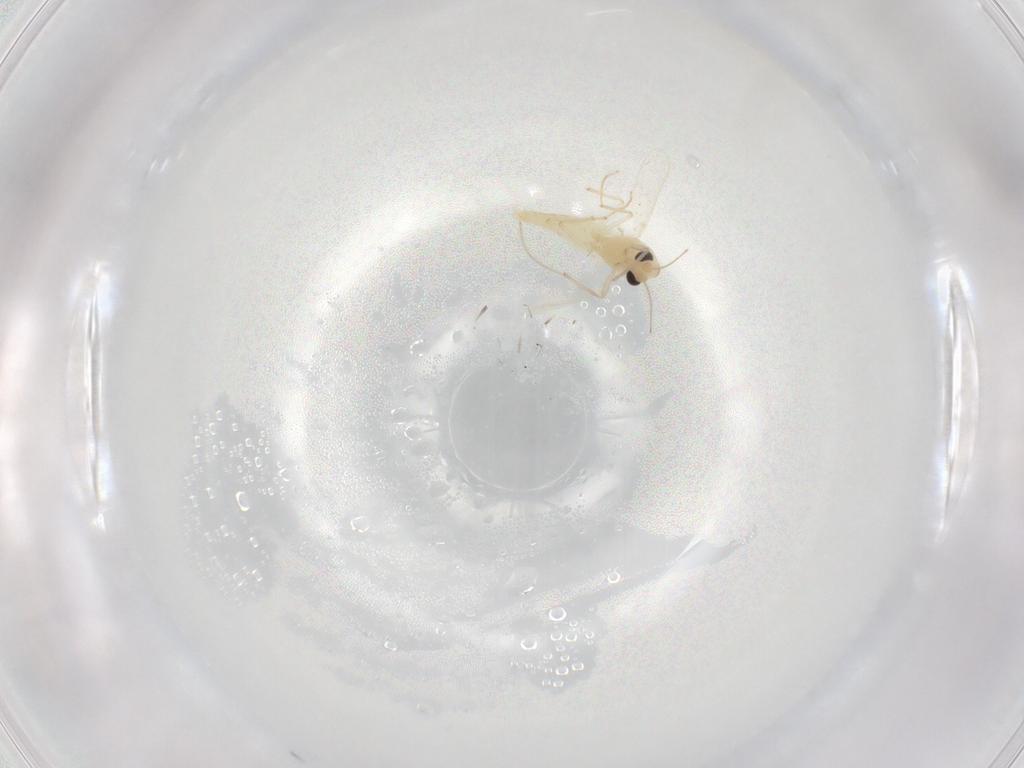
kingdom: Animalia
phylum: Arthropoda
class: Insecta
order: Diptera
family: Chironomidae
